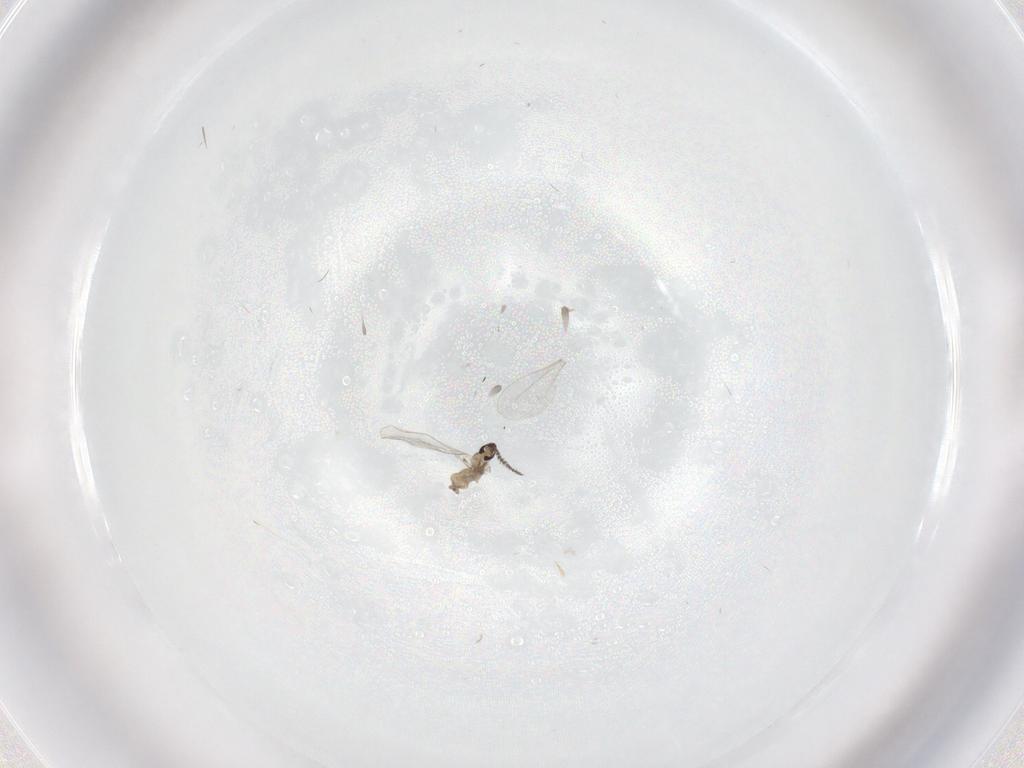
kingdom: Animalia
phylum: Arthropoda
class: Insecta
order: Diptera
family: Cecidomyiidae
